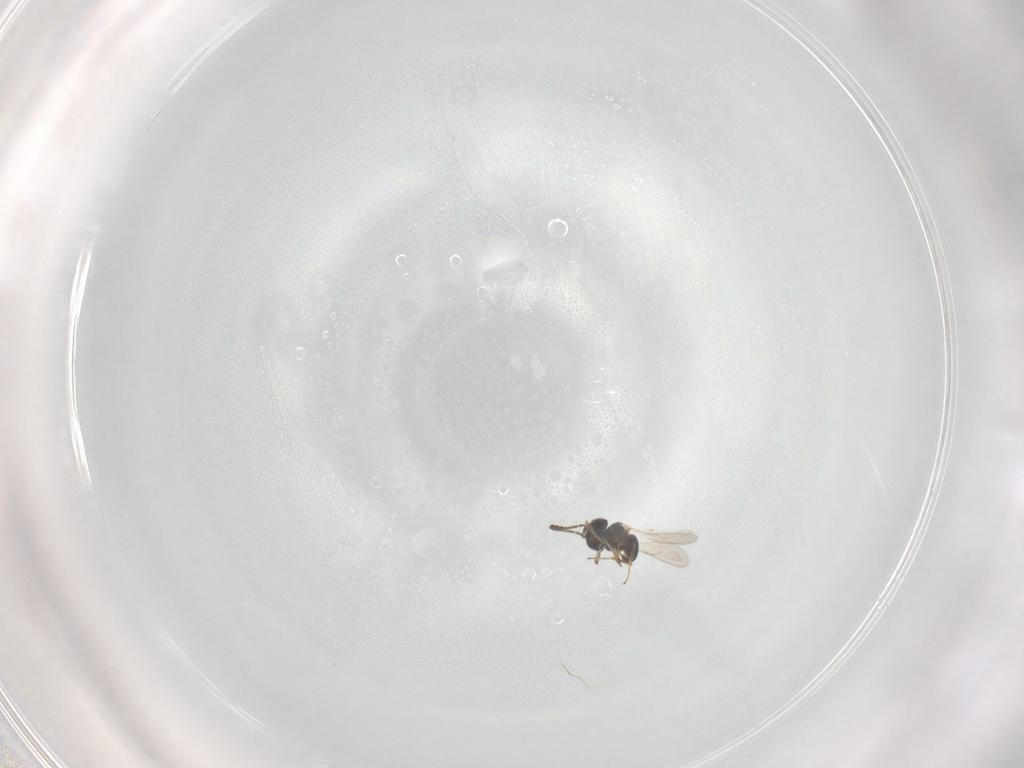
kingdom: Animalia
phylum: Arthropoda
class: Insecta
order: Hymenoptera
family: Scelionidae
